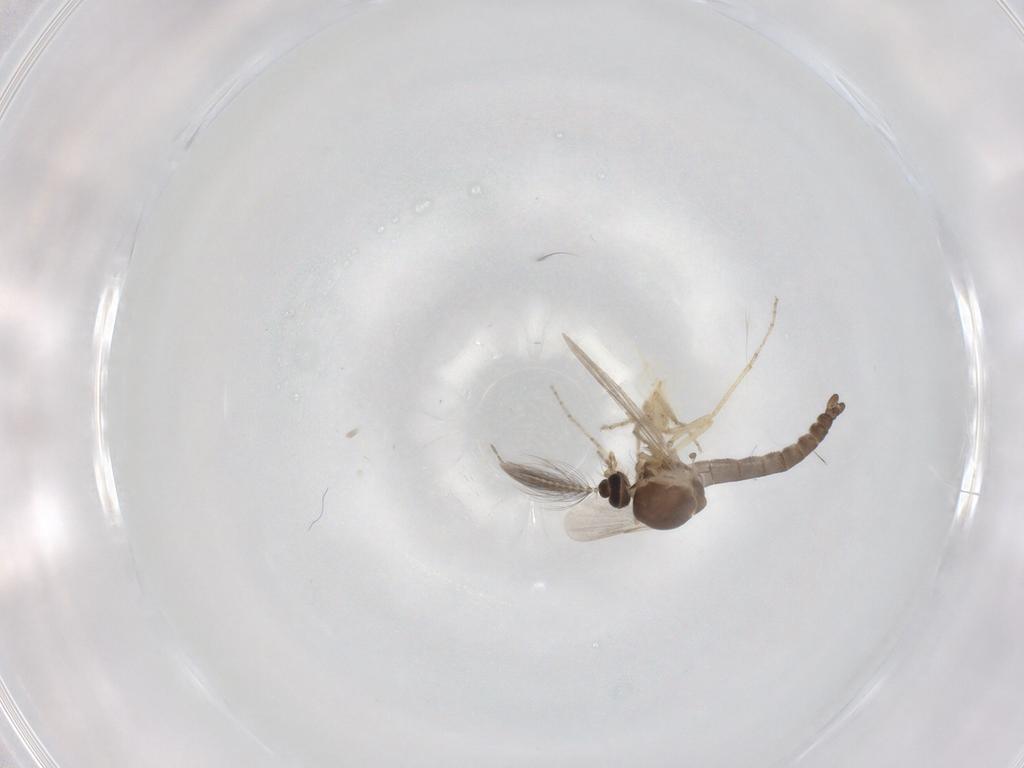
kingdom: Animalia
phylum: Arthropoda
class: Insecta
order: Diptera
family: Ceratopogonidae
